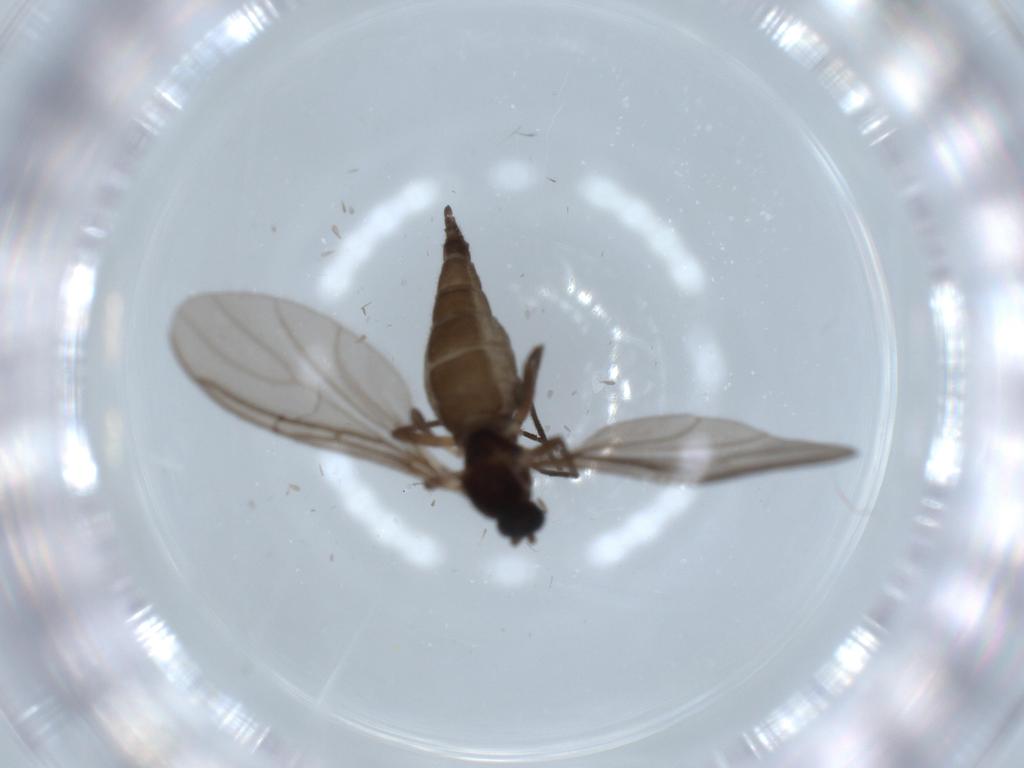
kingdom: Animalia
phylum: Arthropoda
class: Insecta
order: Diptera
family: Sciaridae
